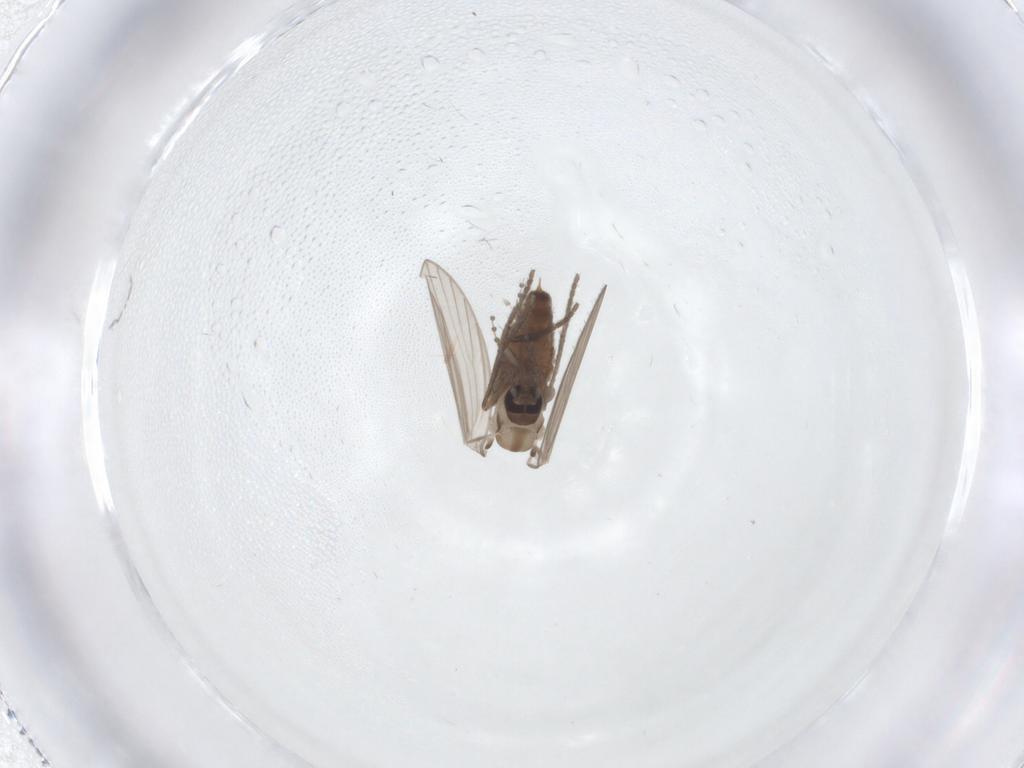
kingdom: Animalia
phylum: Arthropoda
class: Insecta
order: Diptera
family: Psychodidae
